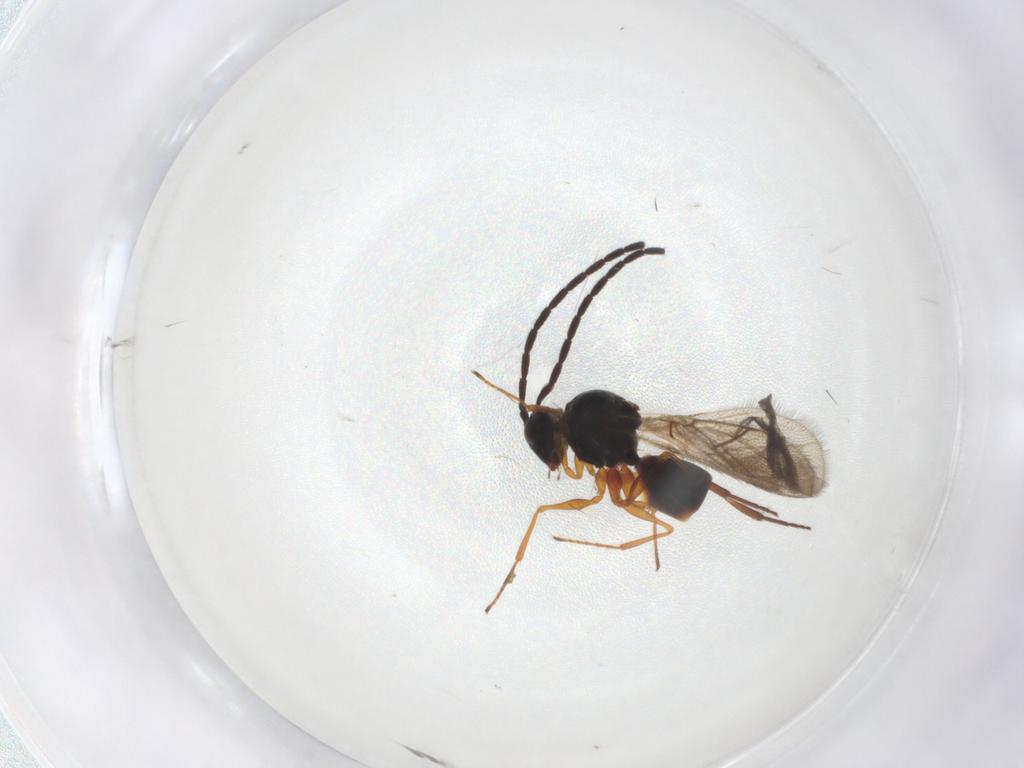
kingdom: Animalia
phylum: Arthropoda
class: Insecta
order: Hymenoptera
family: Figitidae
